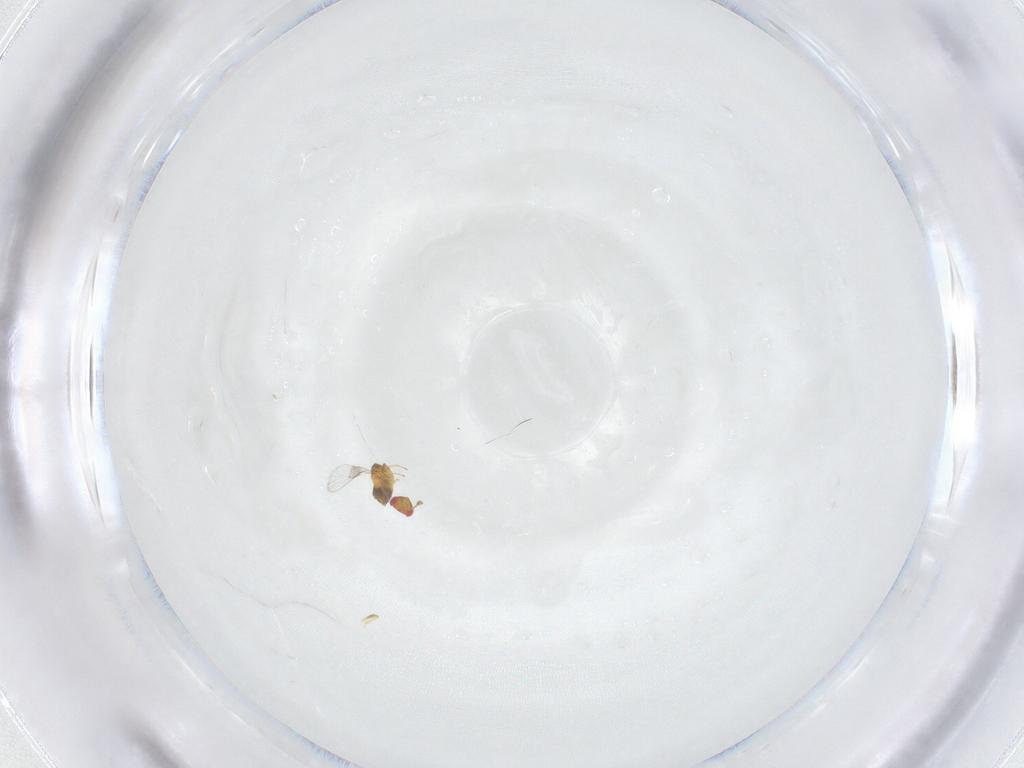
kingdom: Animalia
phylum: Arthropoda
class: Insecta
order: Hymenoptera
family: Trichogrammatidae
